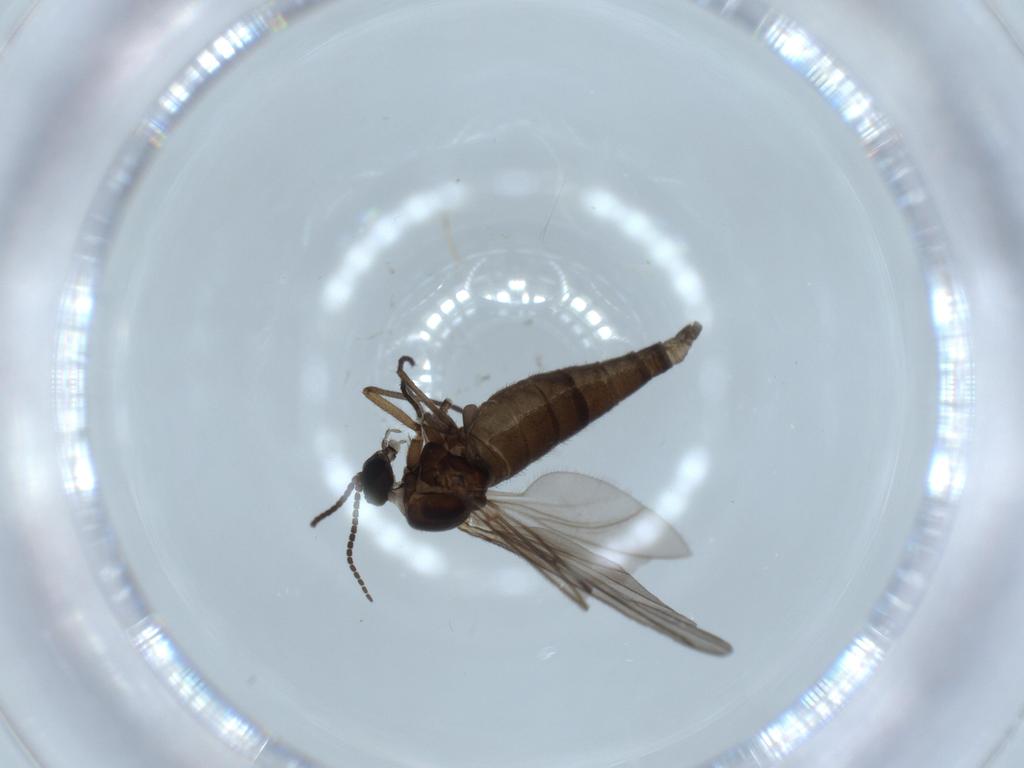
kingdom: Animalia
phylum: Arthropoda
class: Insecta
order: Diptera
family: Sciaridae
